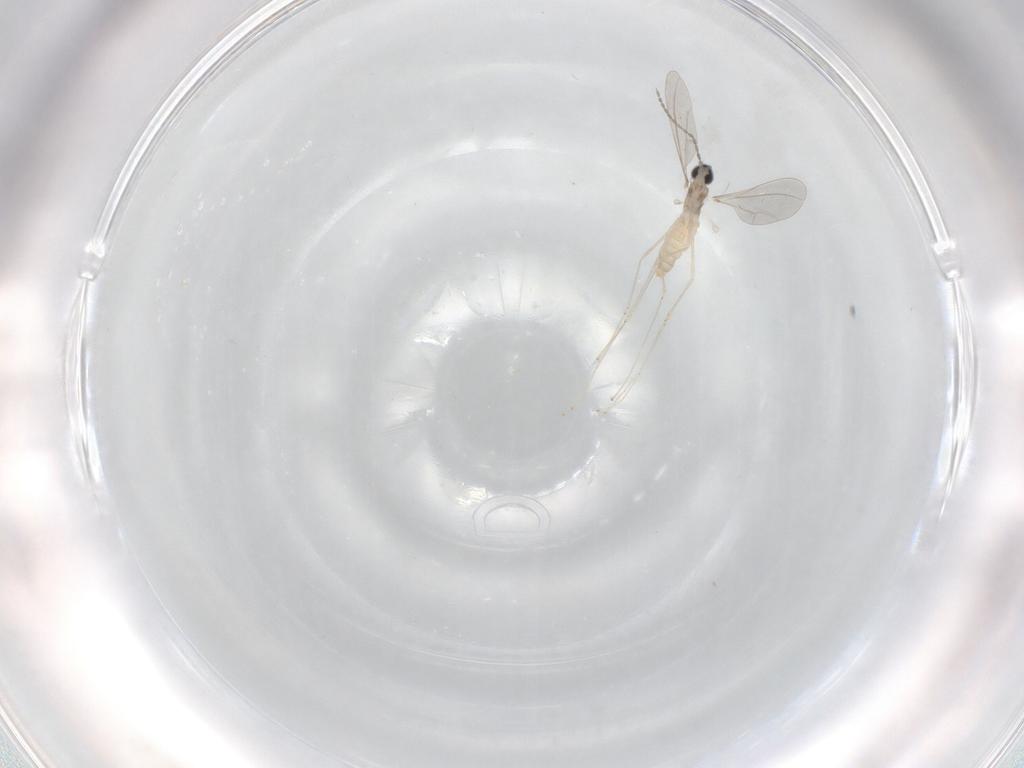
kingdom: Animalia
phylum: Arthropoda
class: Insecta
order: Diptera
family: Cecidomyiidae
